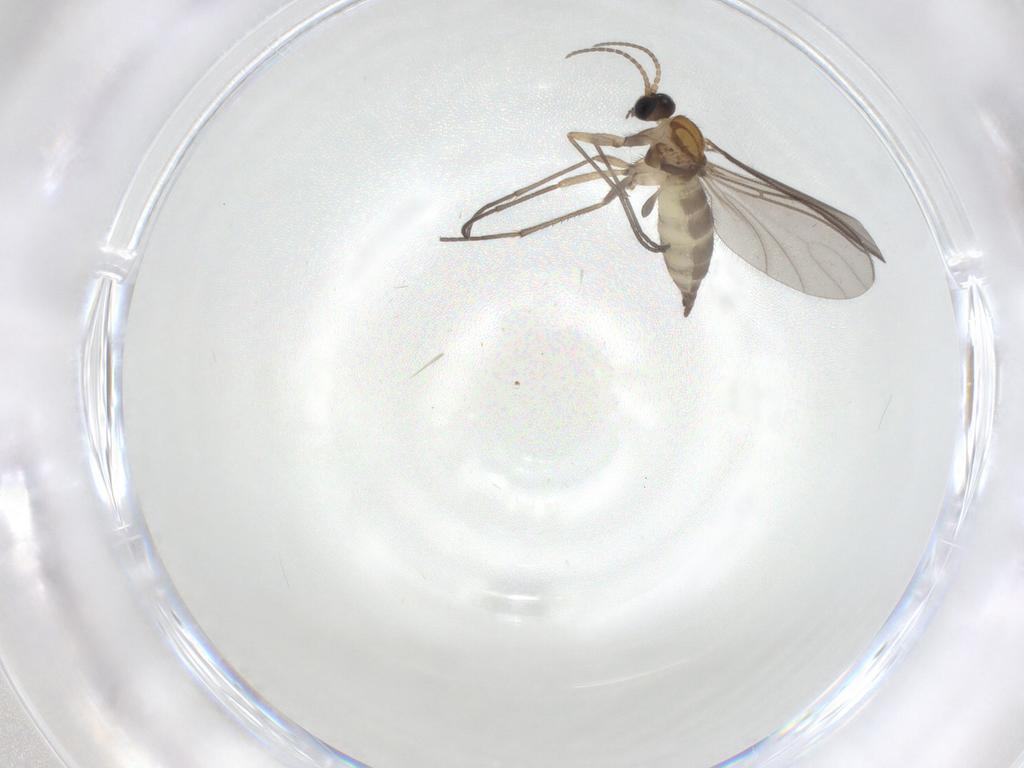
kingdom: Animalia
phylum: Arthropoda
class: Insecta
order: Diptera
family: Sciaridae
